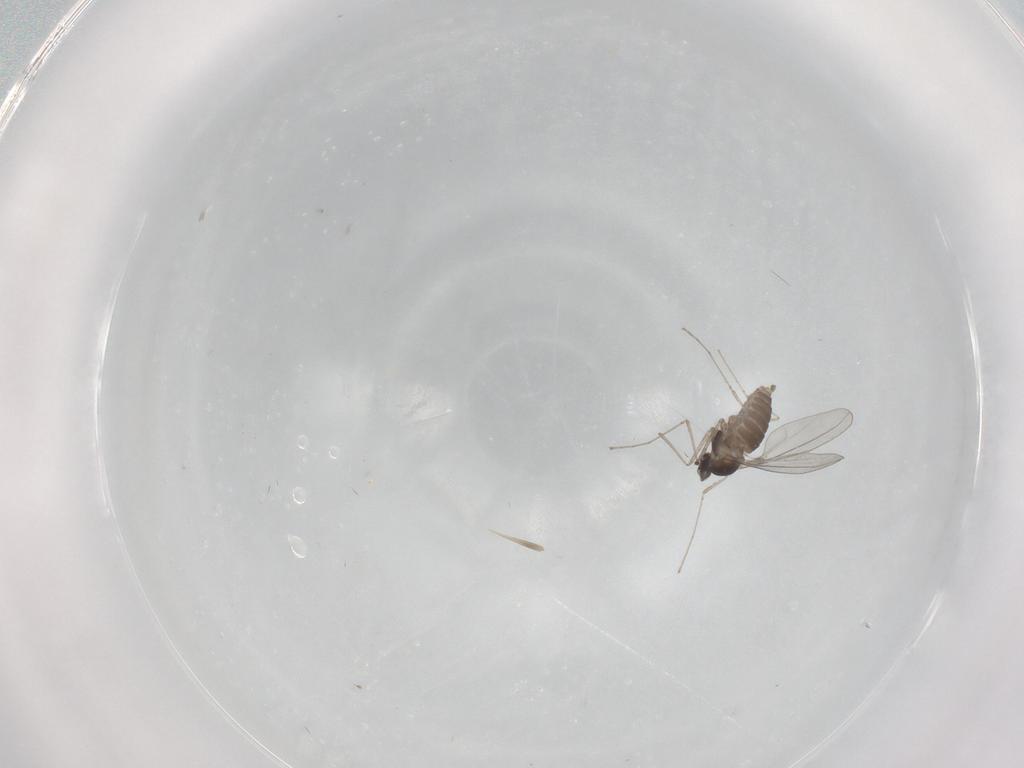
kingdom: Animalia
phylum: Arthropoda
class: Insecta
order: Diptera
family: Cecidomyiidae
